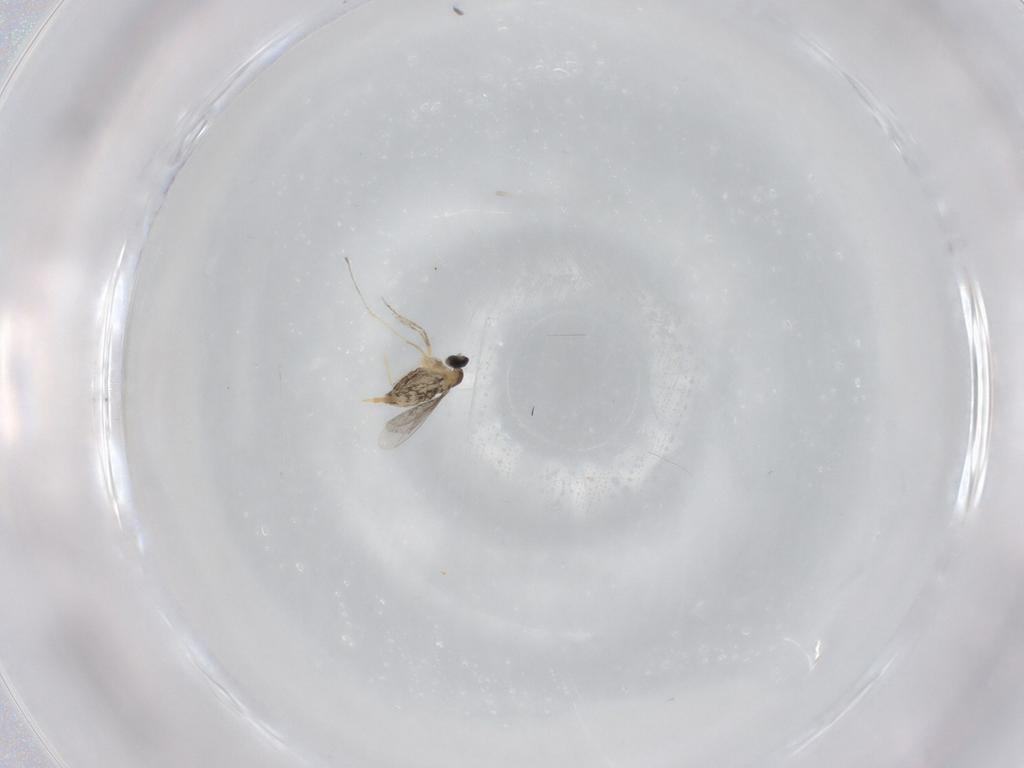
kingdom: Animalia
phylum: Arthropoda
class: Insecta
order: Diptera
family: Cecidomyiidae
